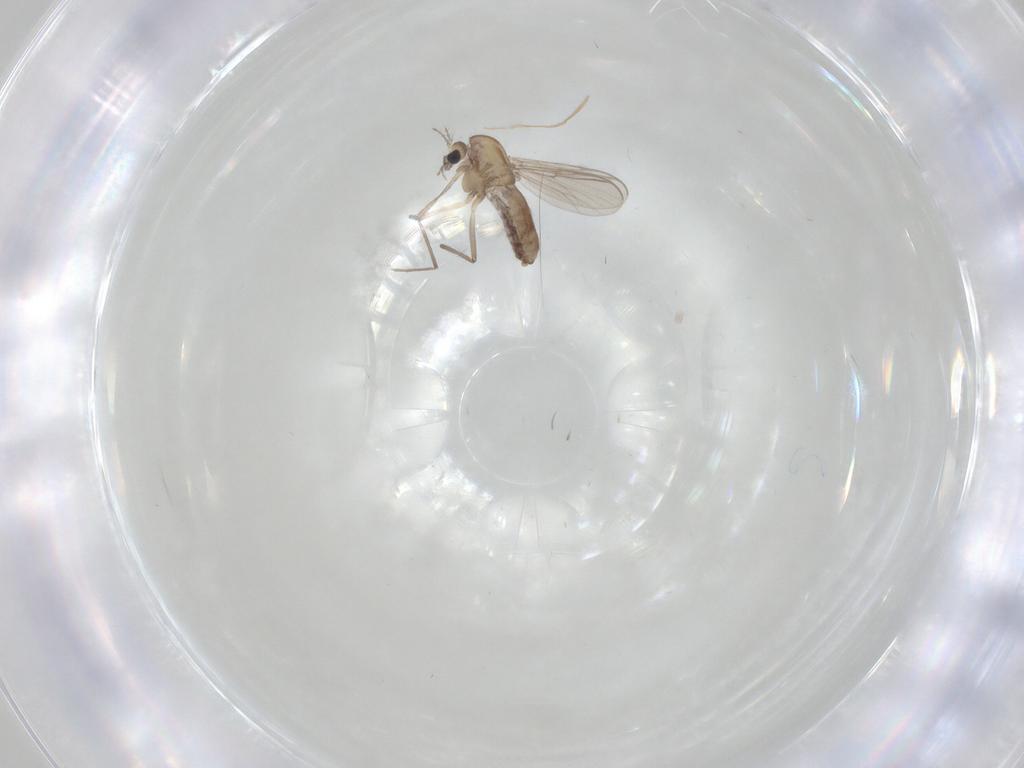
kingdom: Animalia
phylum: Arthropoda
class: Insecta
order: Diptera
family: Chironomidae
